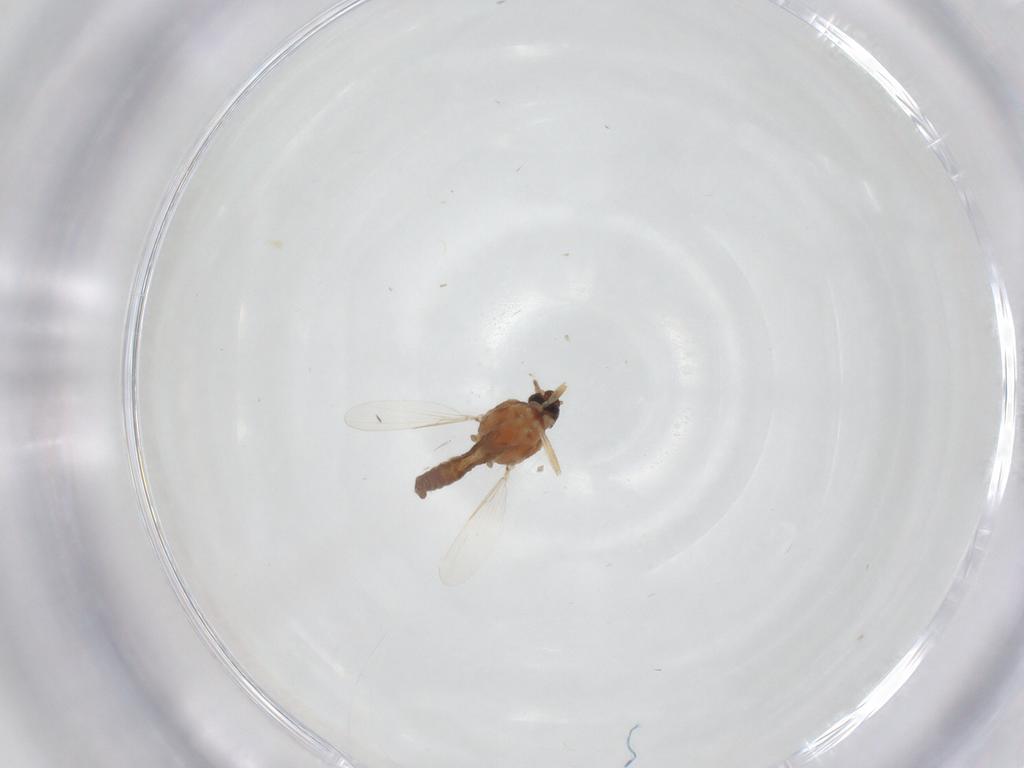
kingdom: Animalia
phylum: Arthropoda
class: Insecta
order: Diptera
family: Ceratopogonidae
